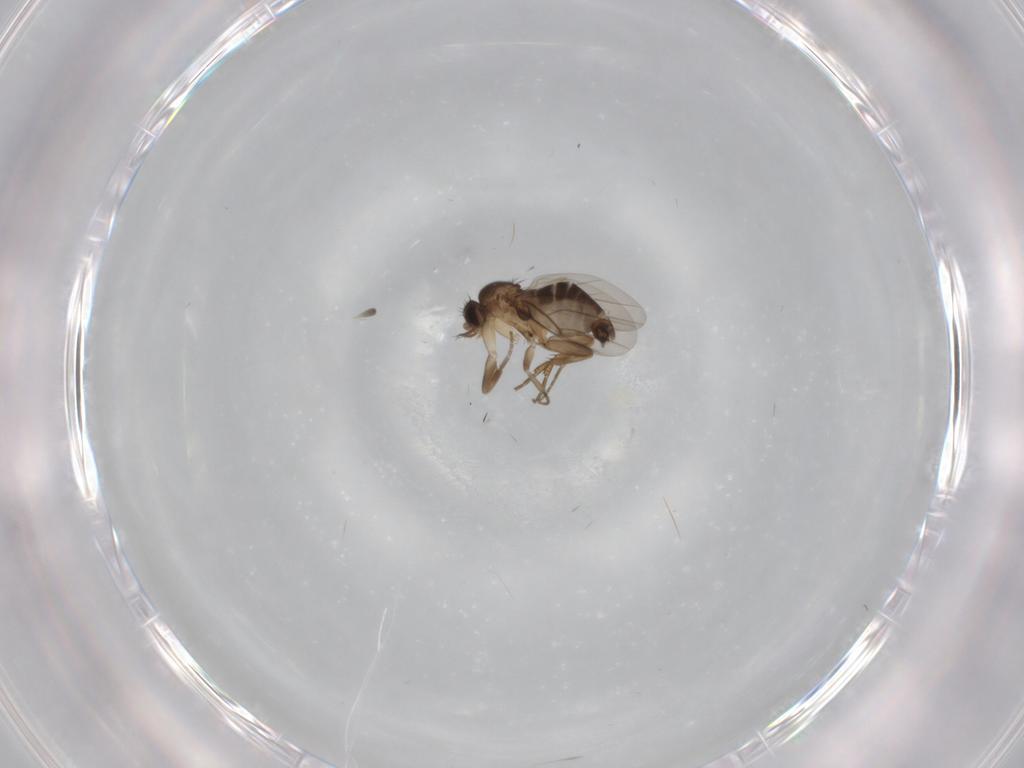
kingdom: Animalia
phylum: Arthropoda
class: Insecta
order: Diptera
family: Phoridae
